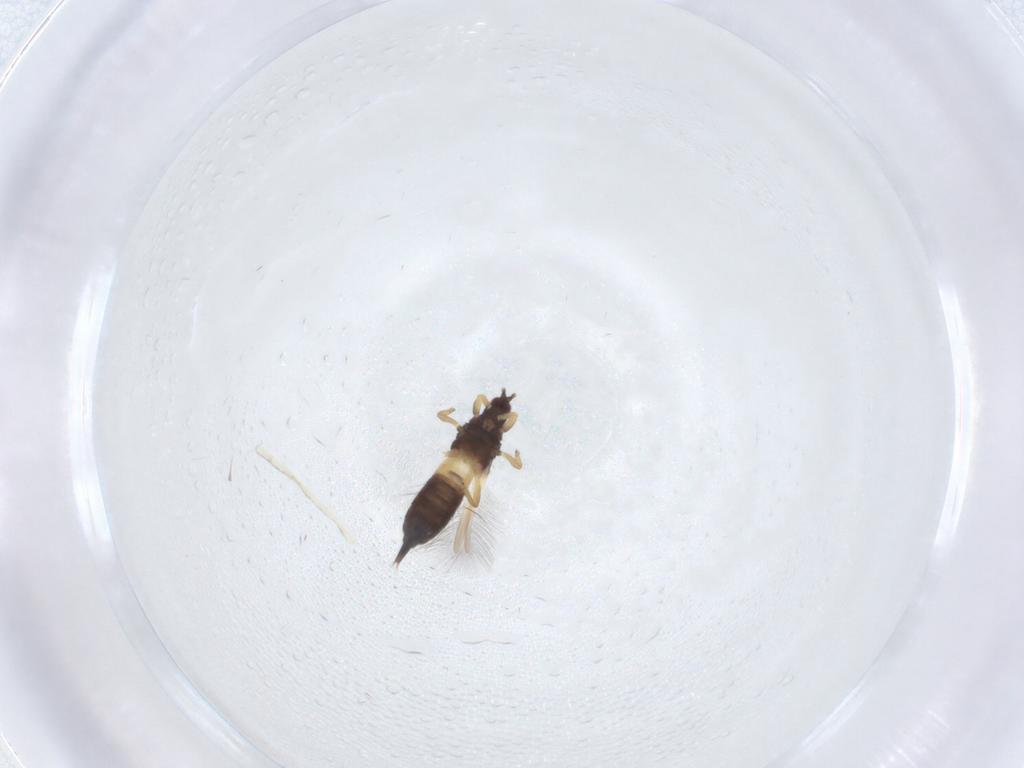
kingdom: Animalia
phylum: Arthropoda
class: Insecta
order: Thysanoptera
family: Phlaeothripidae
